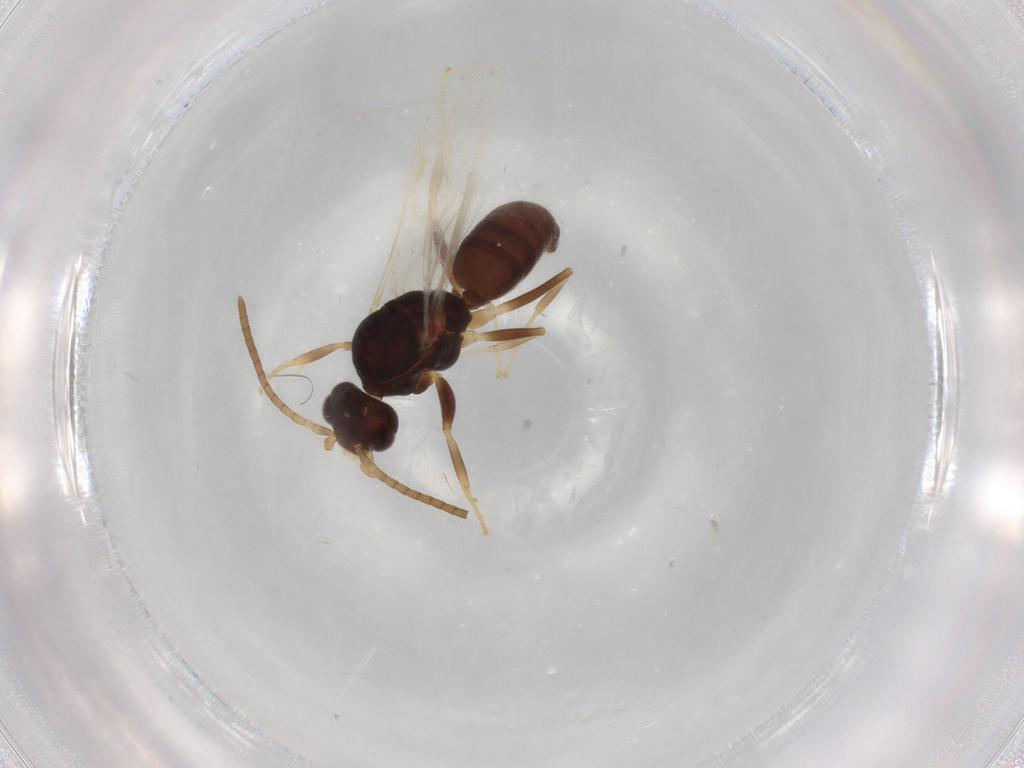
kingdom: Animalia
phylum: Arthropoda
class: Insecta
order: Hymenoptera
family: Formicidae
